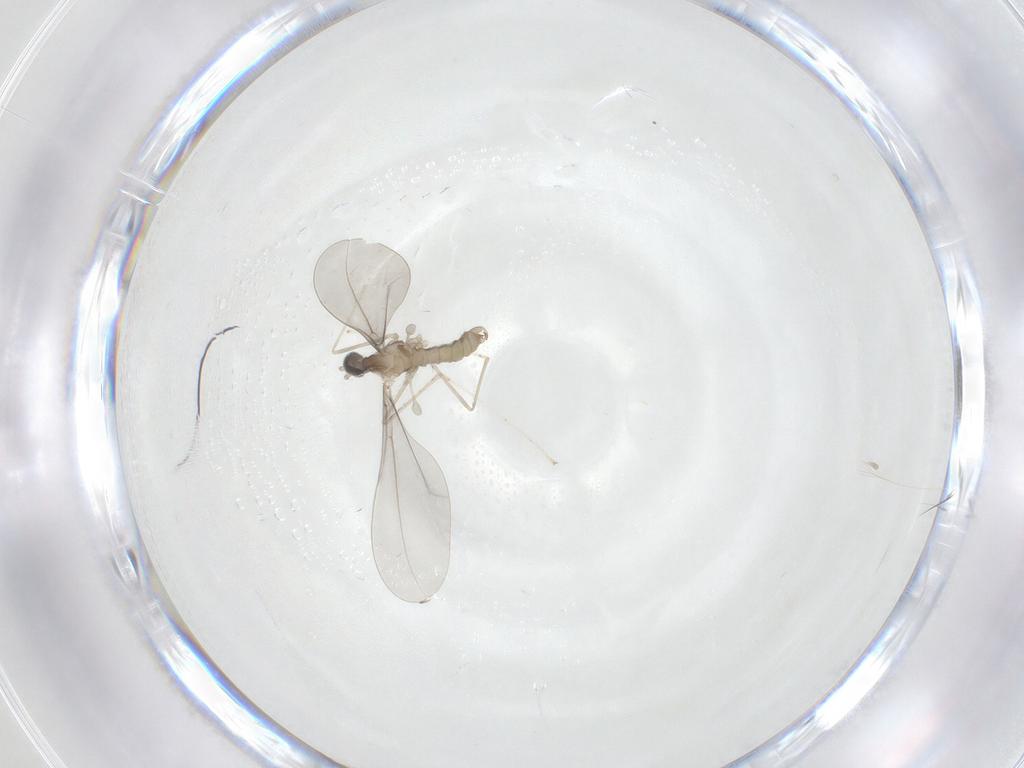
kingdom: Animalia
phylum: Arthropoda
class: Insecta
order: Diptera
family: Cecidomyiidae
